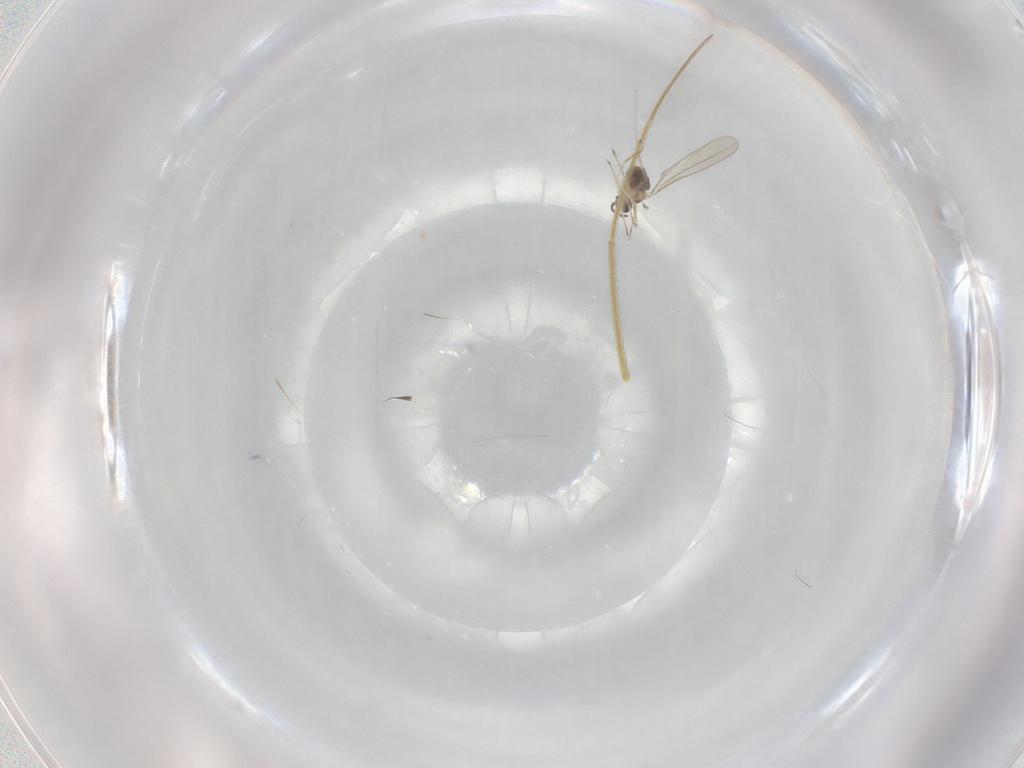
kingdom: Animalia
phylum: Arthropoda
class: Insecta
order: Diptera
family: Cecidomyiidae
